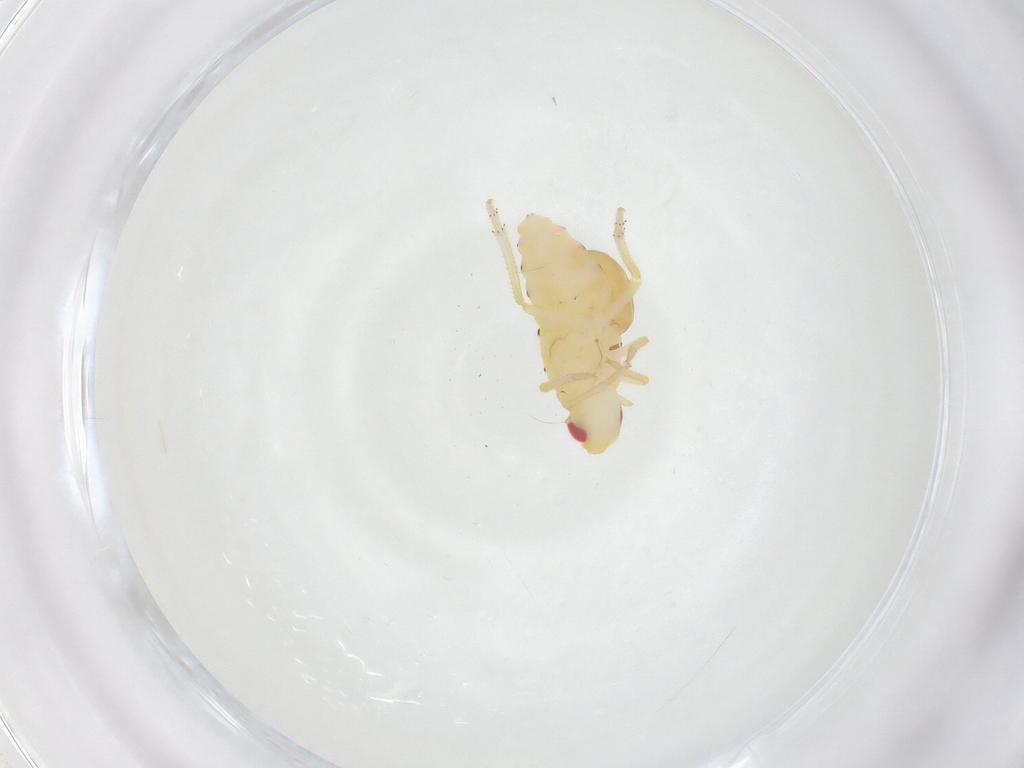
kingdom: Animalia
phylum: Arthropoda
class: Insecta
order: Hemiptera
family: Tropiduchidae
